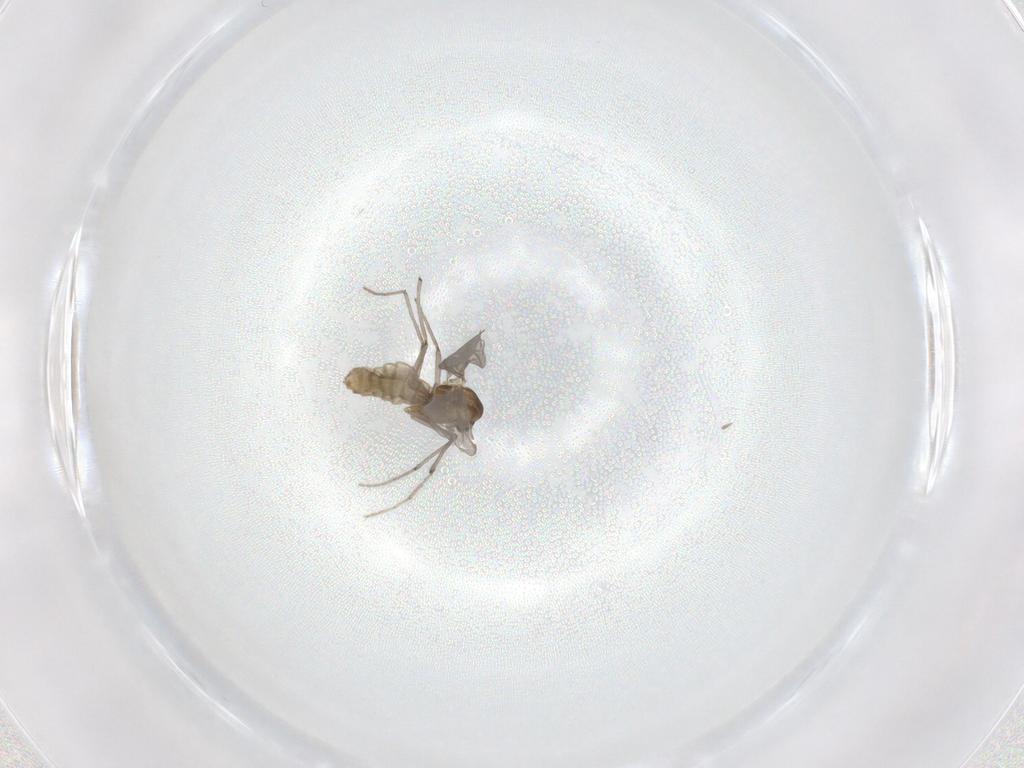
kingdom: Animalia
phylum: Arthropoda
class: Insecta
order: Diptera
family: Chironomidae
